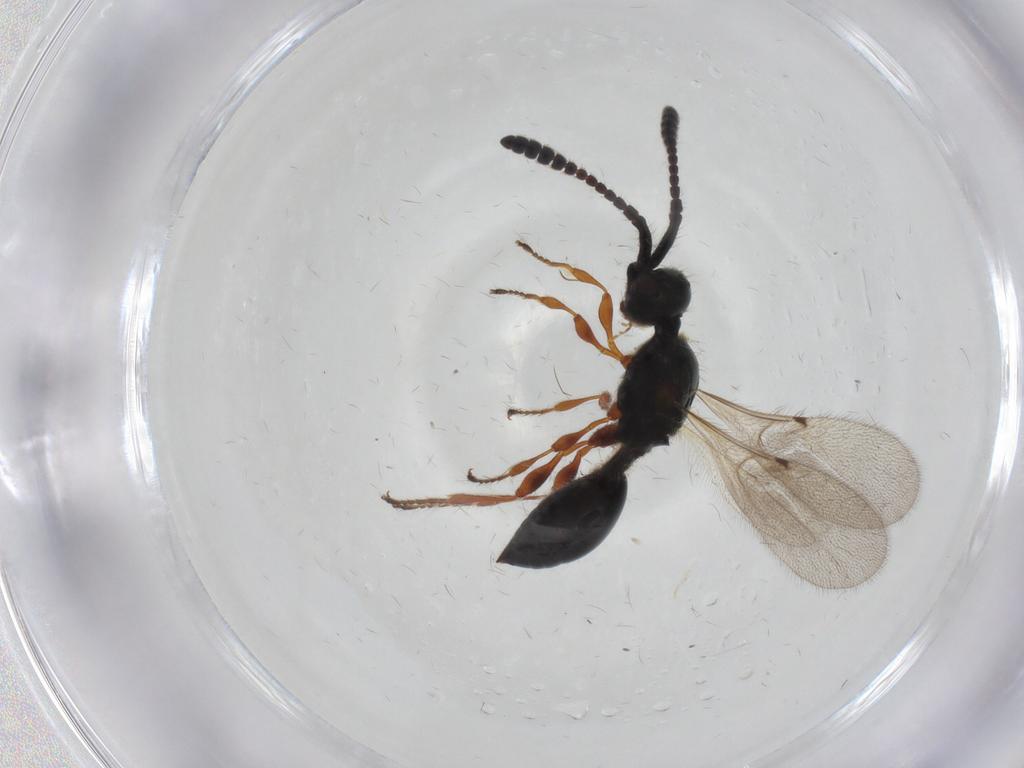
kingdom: Animalia
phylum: Arthropoda
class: Insecta
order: Hymenoptera
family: Diapriidae
